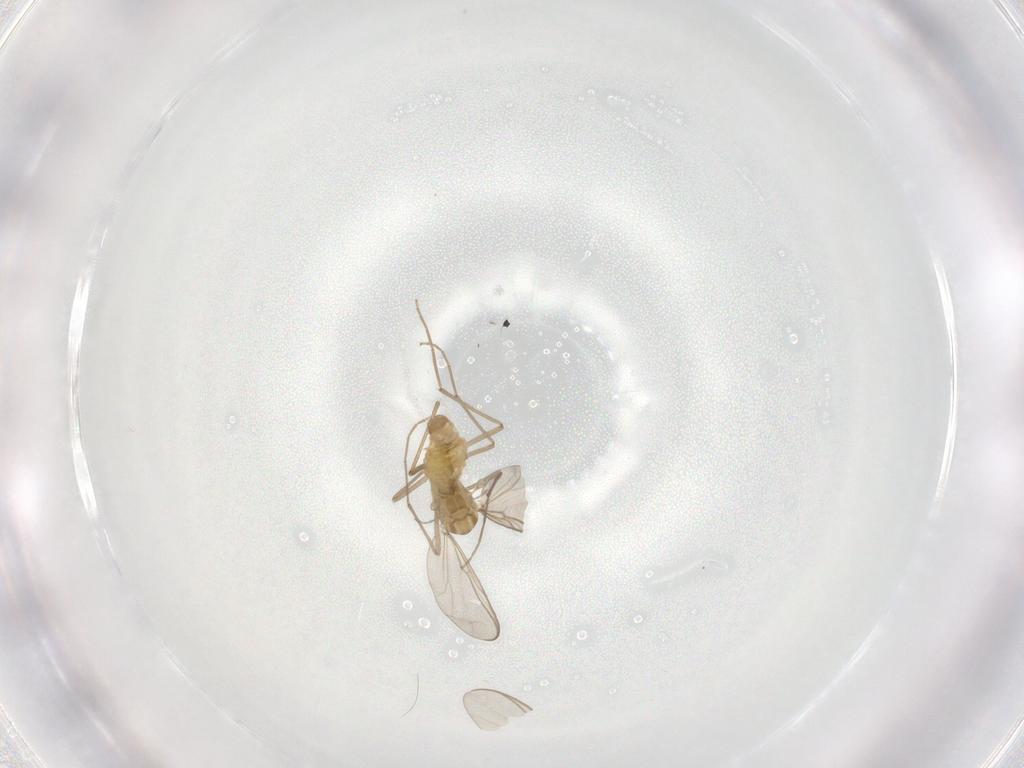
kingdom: Animalia
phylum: Arthropoda
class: Insecta
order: Diptera
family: Chironomidae
